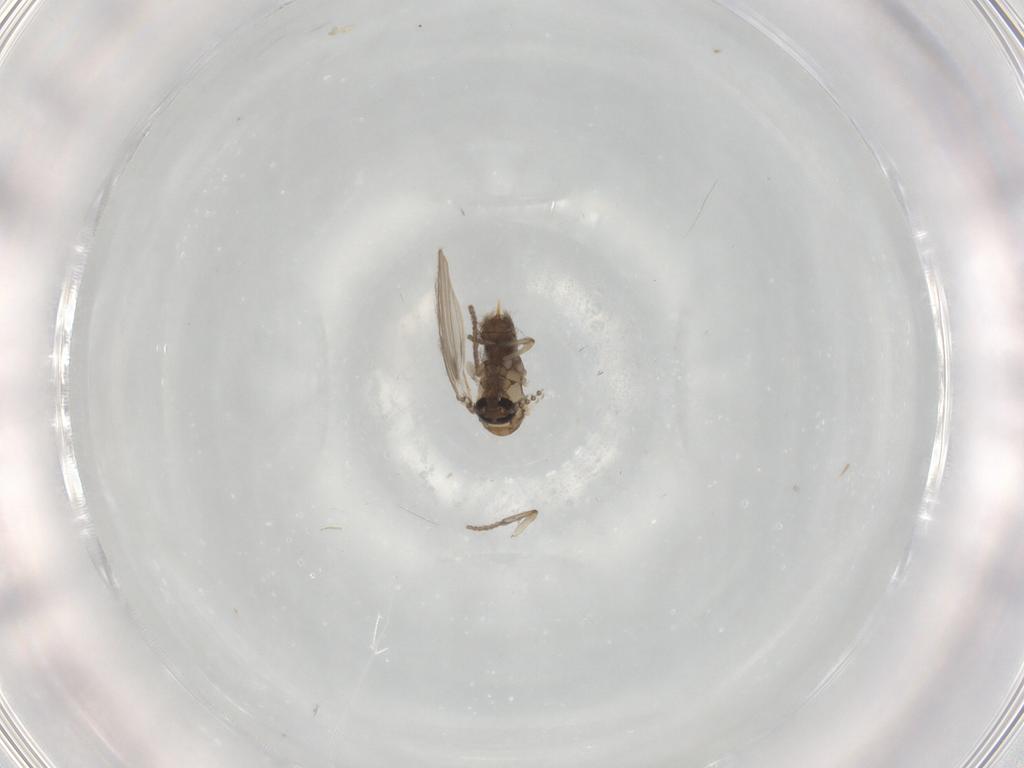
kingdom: Animalia
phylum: Arthropoda
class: Insecta
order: Diptera
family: Psychodidae
